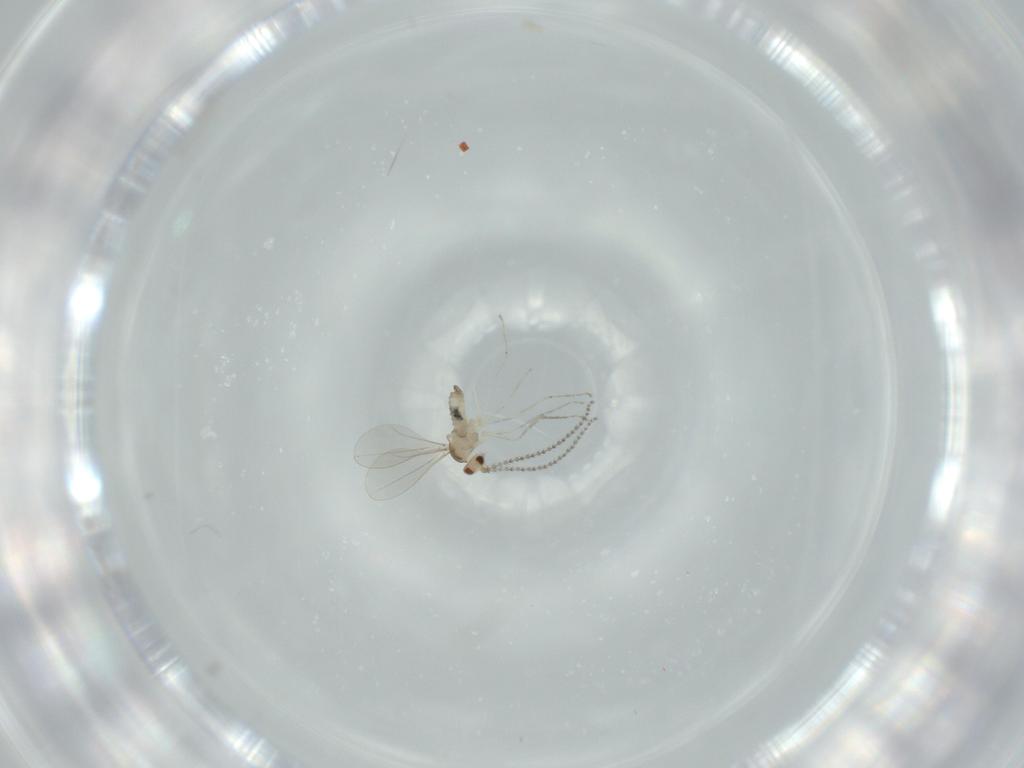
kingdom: Animalia
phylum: Arthropoda
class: Insecta
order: Diptera
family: Cecidomyiidae
